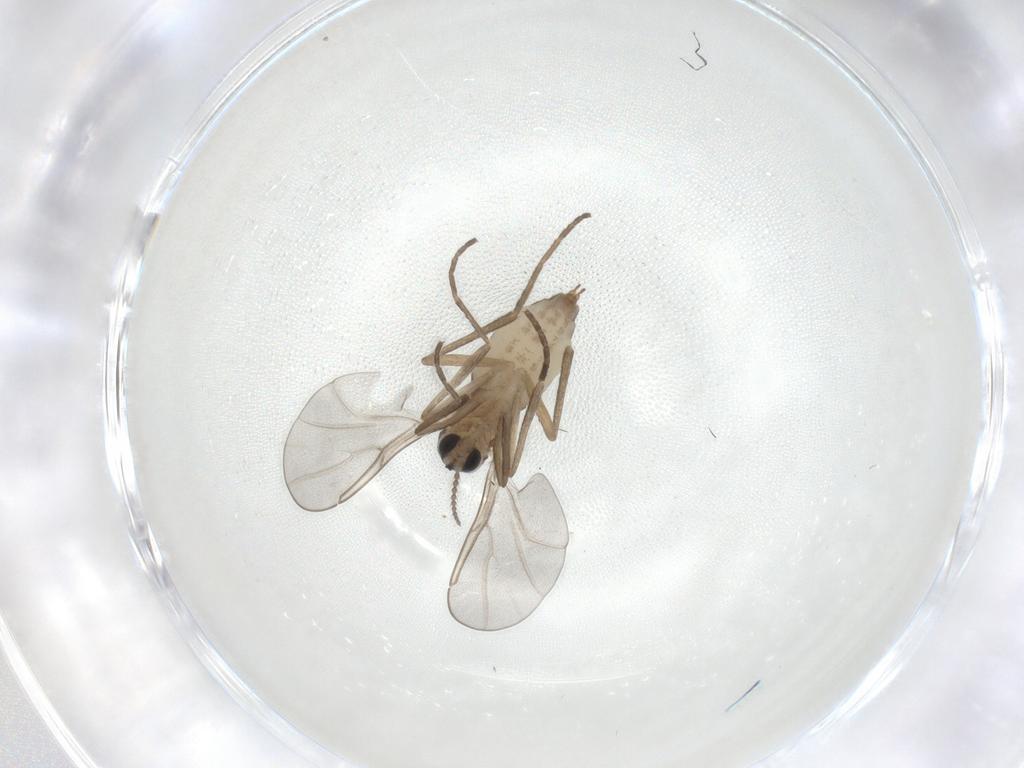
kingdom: Animalia
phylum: Arthropoda
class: Insecta
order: Diptera
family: Cecidomyiidae
